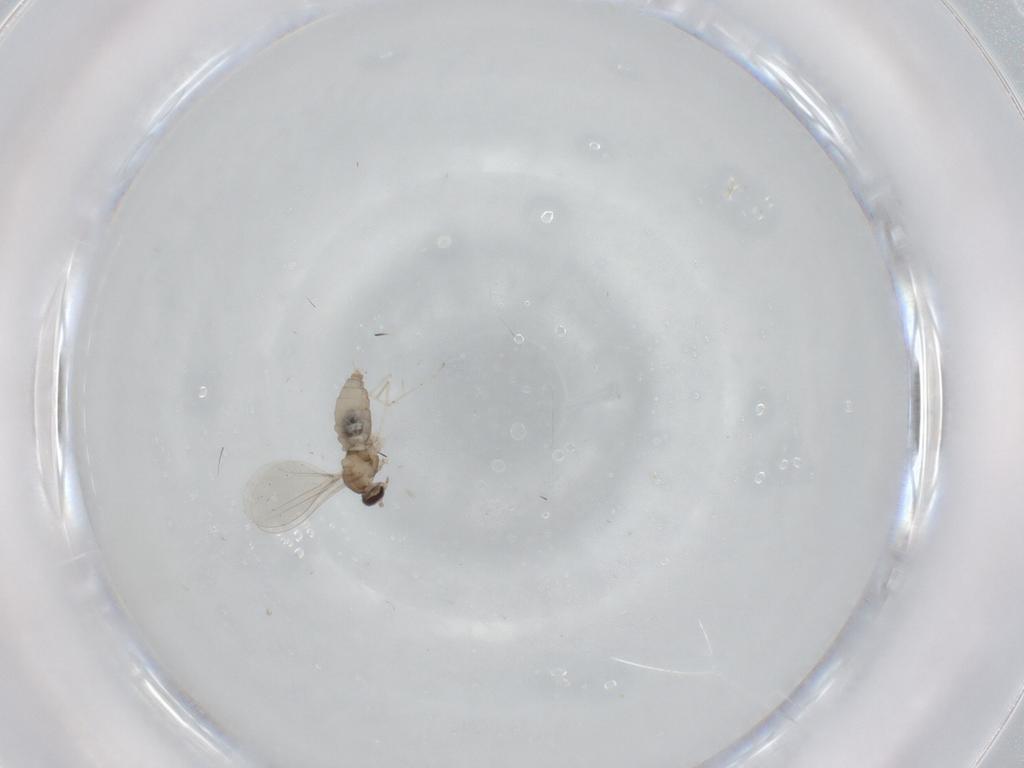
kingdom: Animalia
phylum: Arthropoda
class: Insecta
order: Diptera
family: Cecidomyiidae
